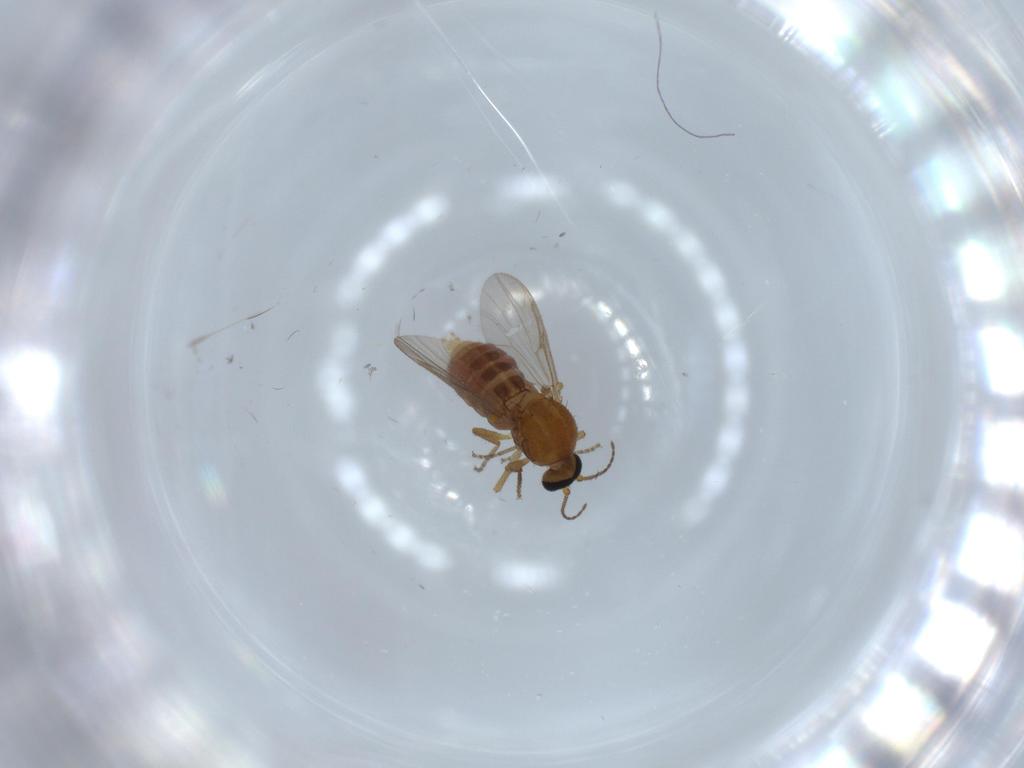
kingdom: Animalia
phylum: Arthropoda
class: Insecta
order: Diptera
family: Ceratopogonidae
